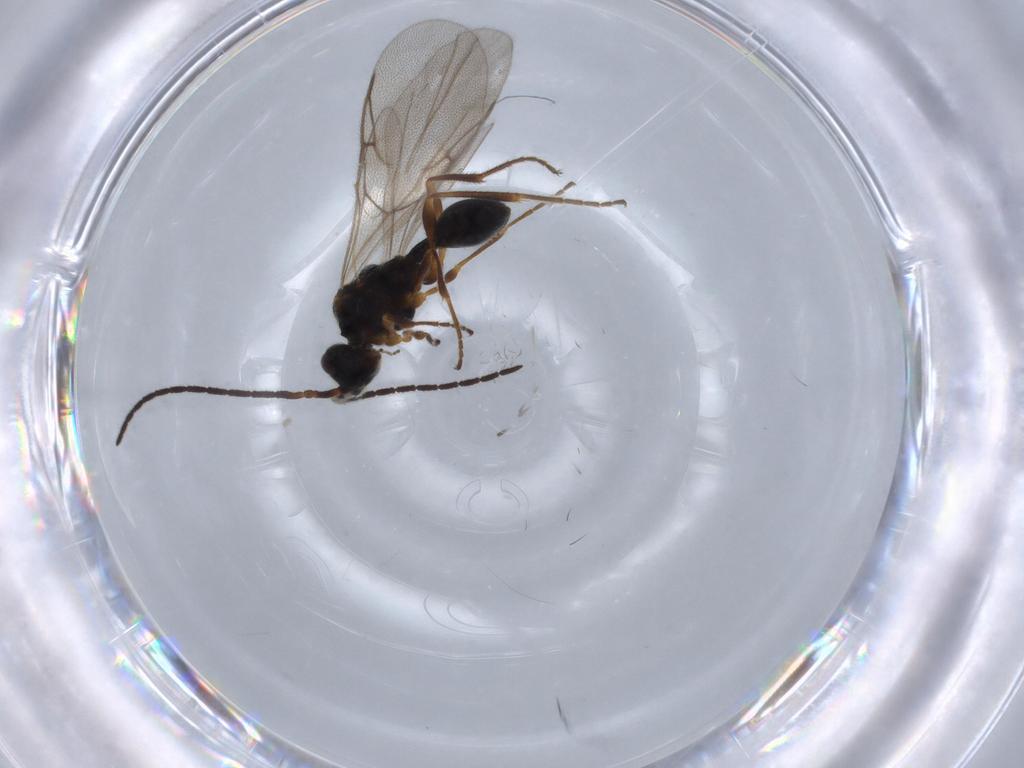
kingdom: Animalia
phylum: Arthropoda
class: Insecta
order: Hymenoptera
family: Diapriidae
